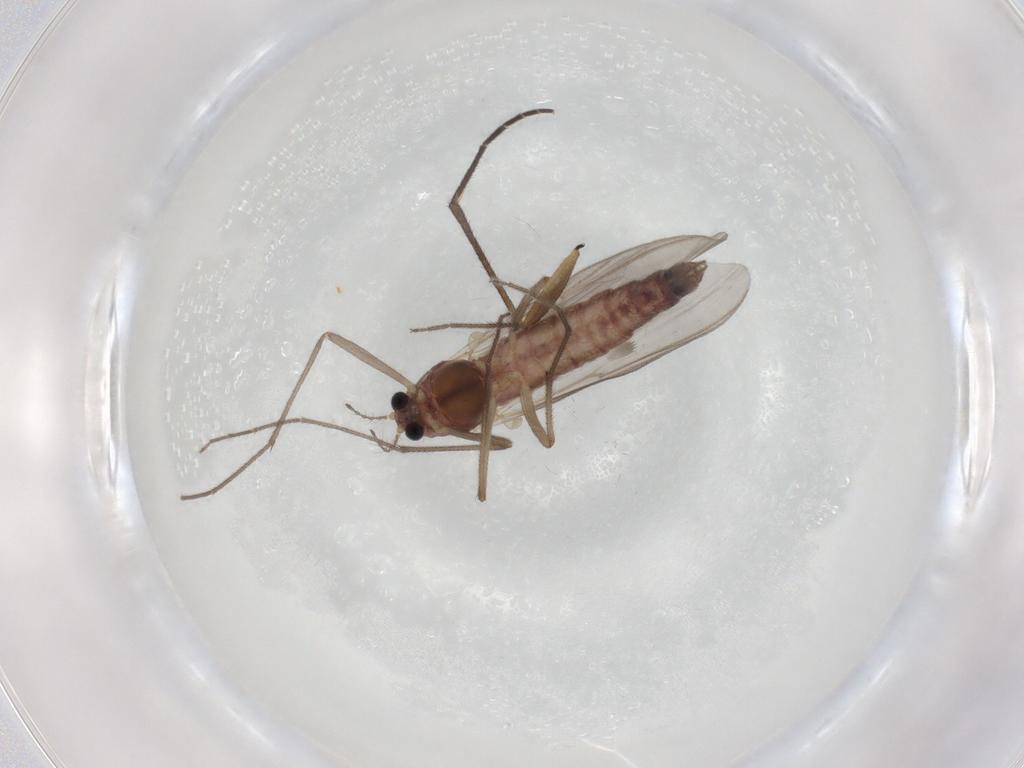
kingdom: Animalia
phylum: Arthropoda
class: Insecta
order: Diptera
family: Chironomidae
